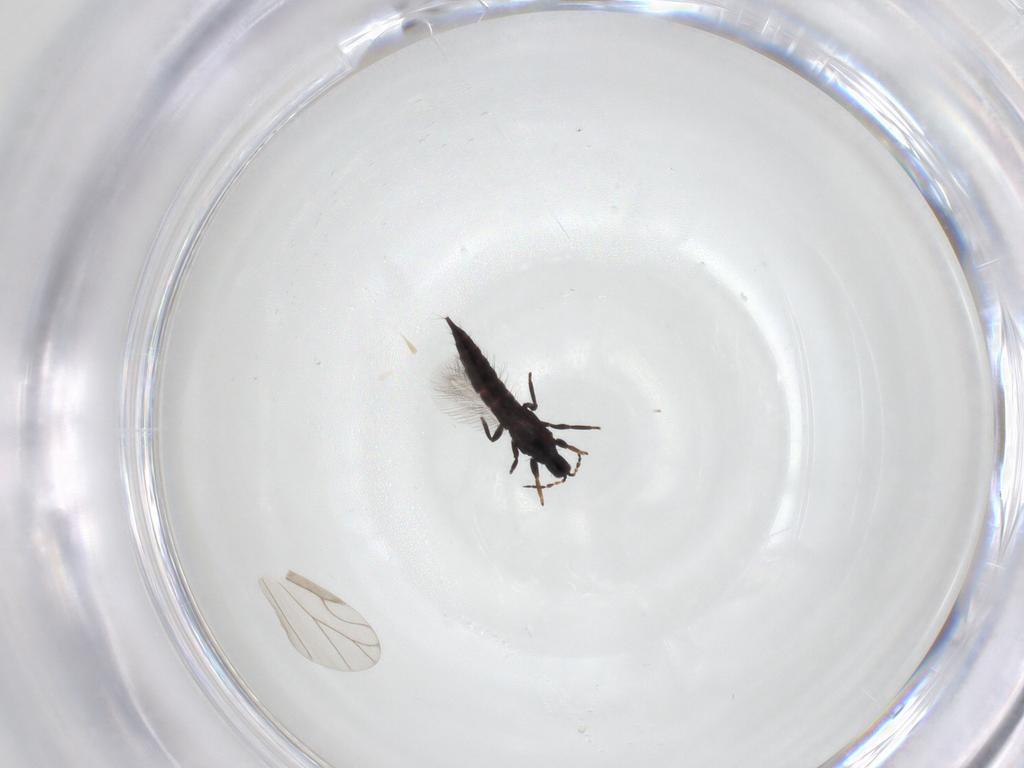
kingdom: Animalia
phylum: Arthropoda
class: Insecta
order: Thysanoptera
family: Phlaeothripidae
